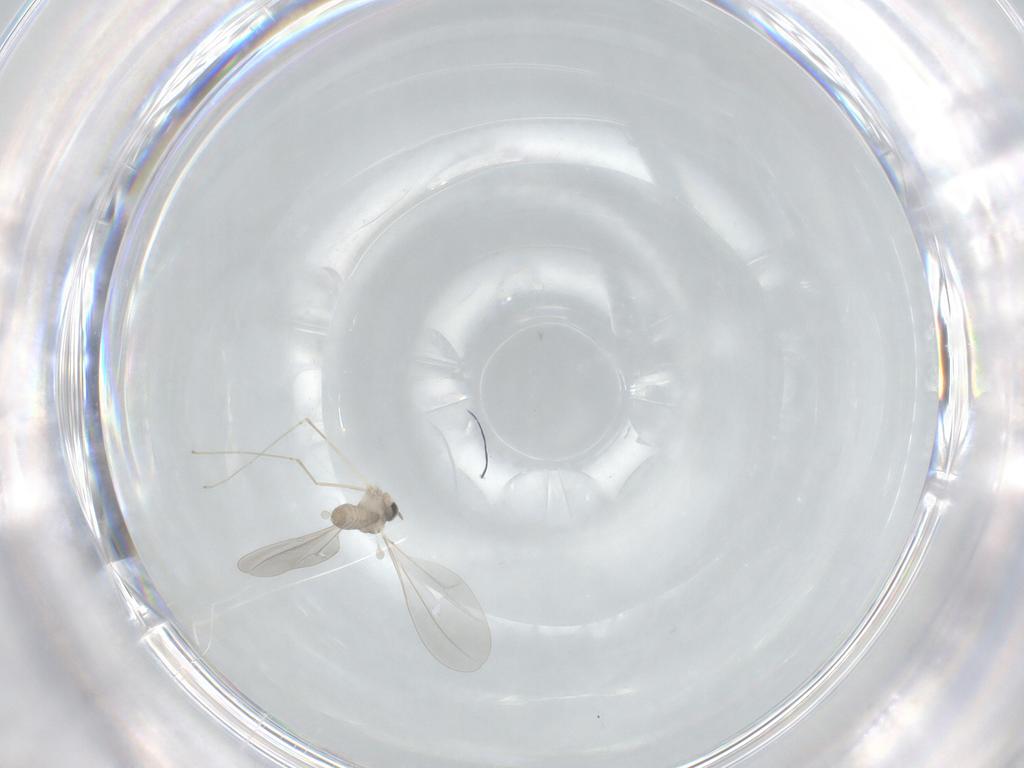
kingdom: Animalia
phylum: Arthropoda
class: Insecta
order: Diptera
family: Cecidomyiidae
